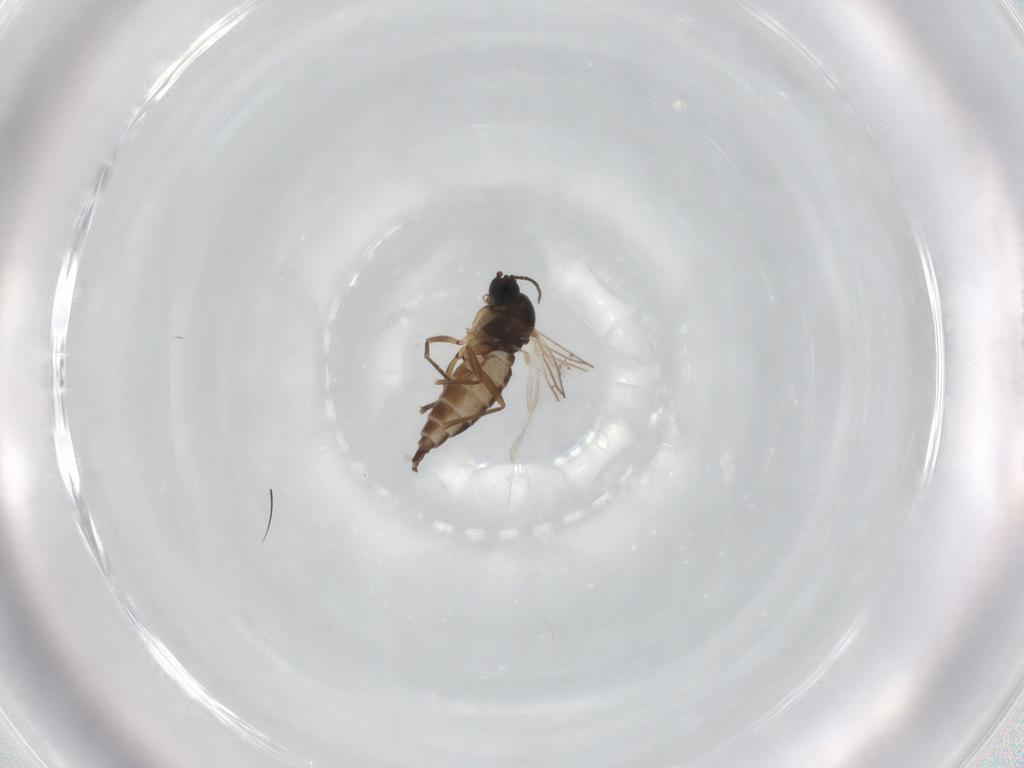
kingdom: Animalia
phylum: Arthropoda
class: Insecta
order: Diptera
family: Sciaridae
